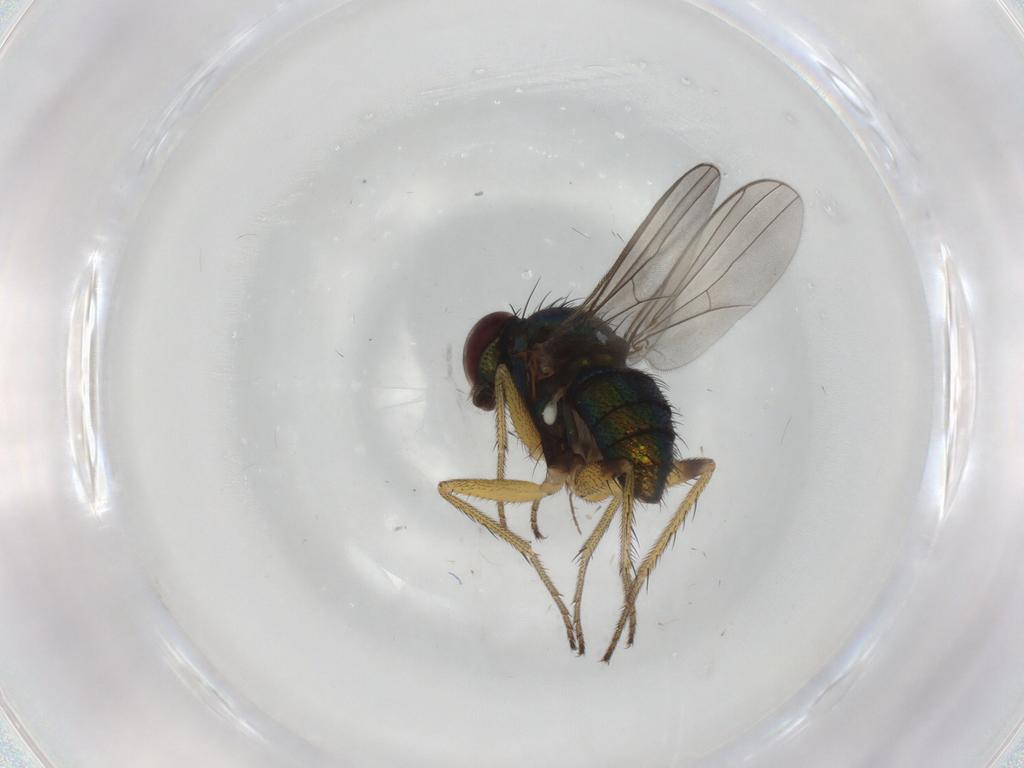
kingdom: Animalia
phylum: Arthropoda
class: Insecta
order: Diptera
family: Dolichopodidae
